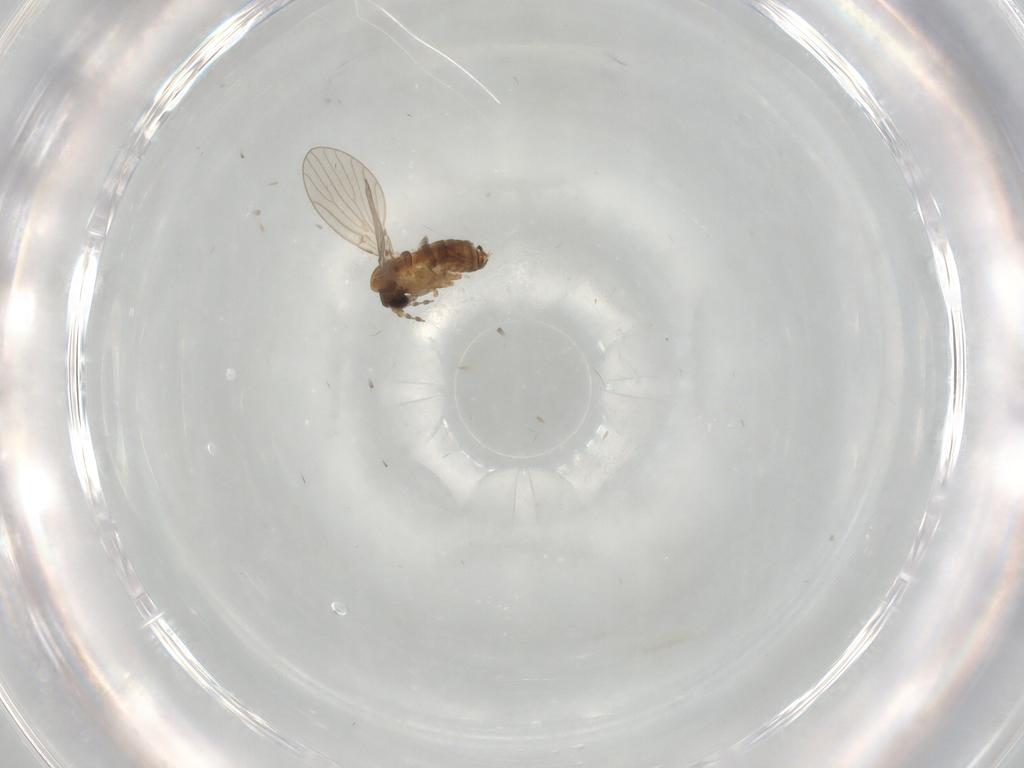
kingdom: Animalia
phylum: Arthropoda
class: Insecta
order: Diptera
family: Psychodidae
